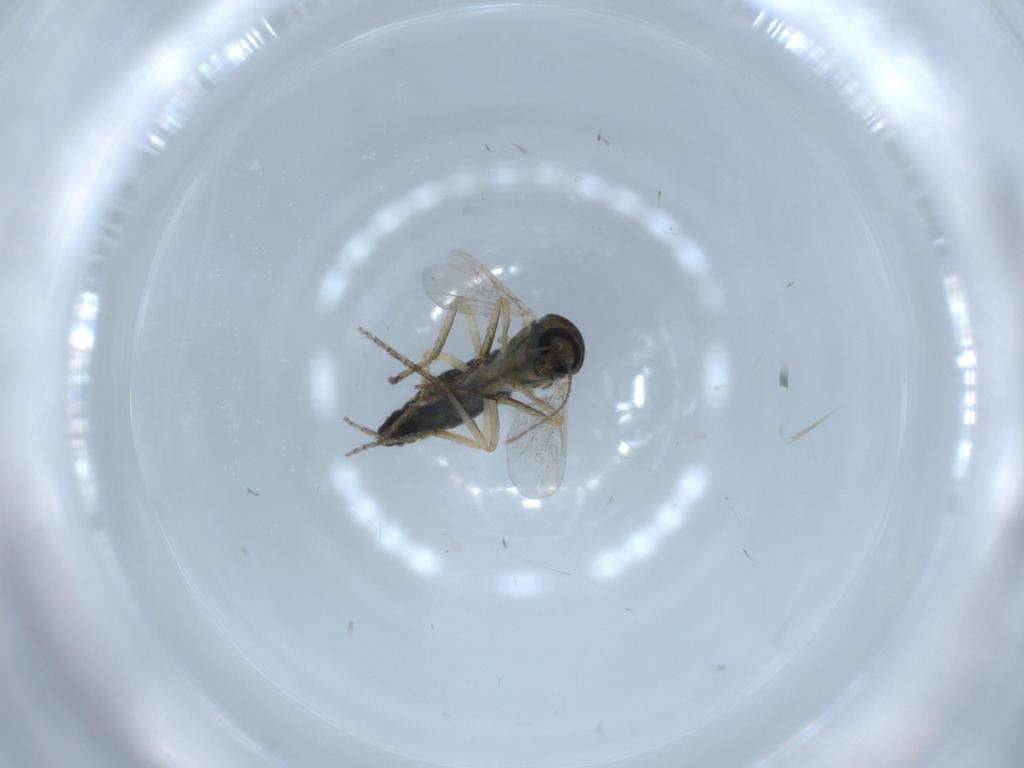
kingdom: Animalia
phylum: Arthropoda
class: Insecta
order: Diptera
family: Ceratopogonidae
